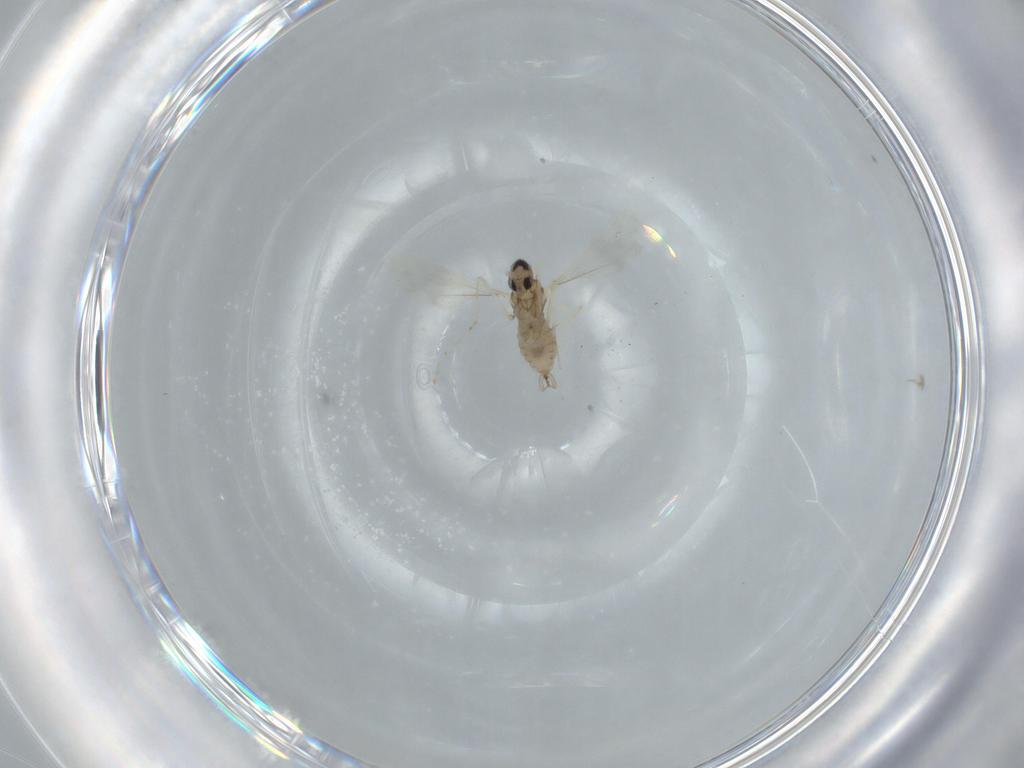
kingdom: Animalia
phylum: Arthropoda
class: Insecta
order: Diptera
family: Cecidomyiidae
